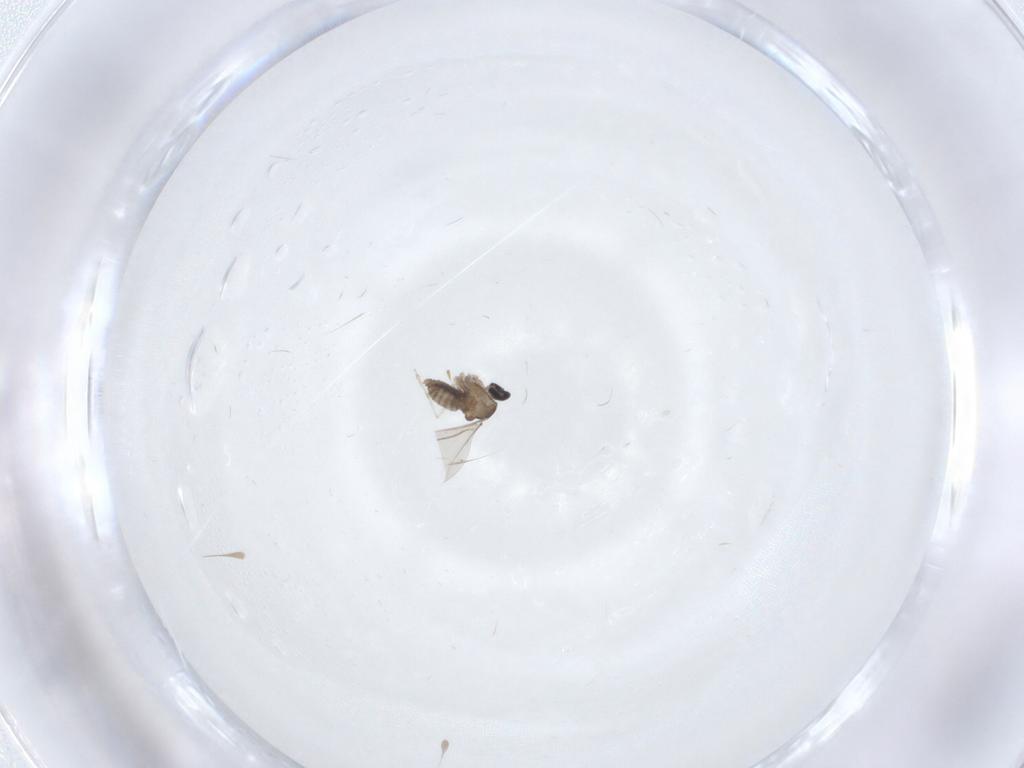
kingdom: Animalia
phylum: Arthropoda
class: Insecta
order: Diptera
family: Cecidomyiidae
